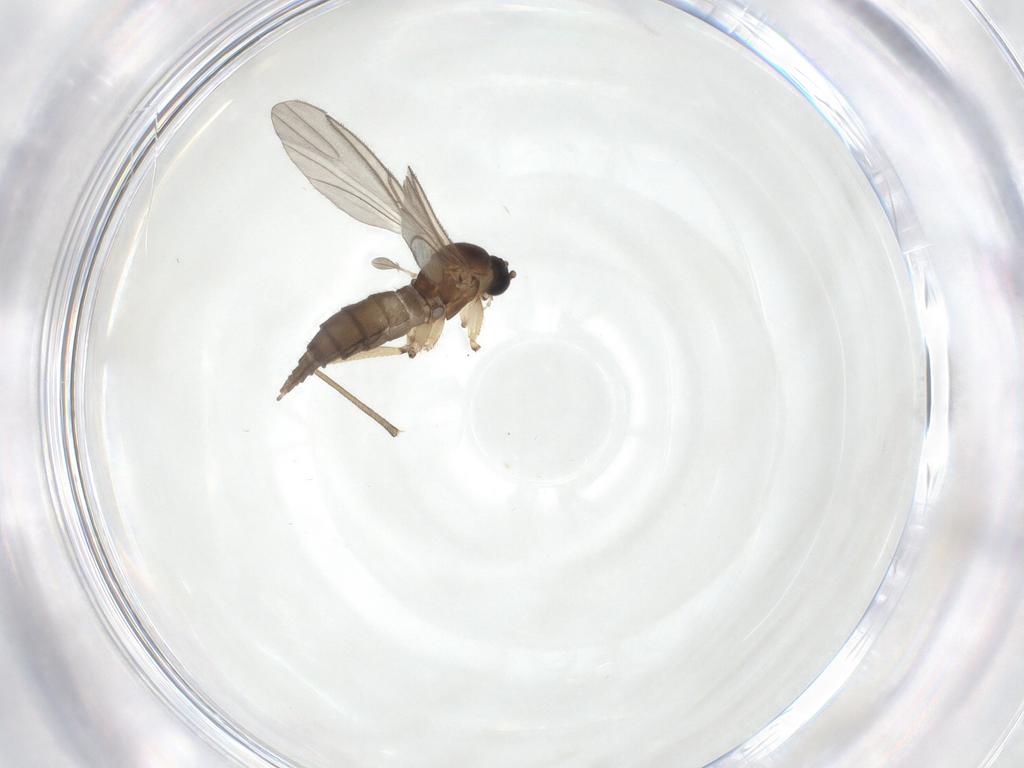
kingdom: Animalia
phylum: Arthropoda
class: Insecta
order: Diptera
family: Sciaridae
